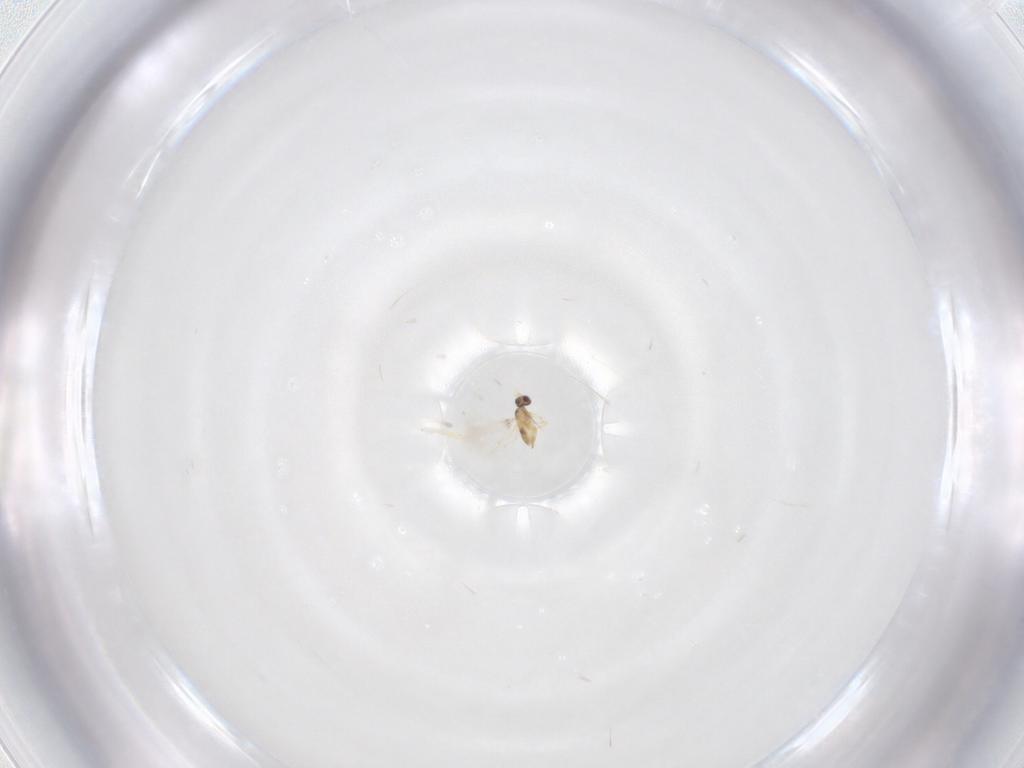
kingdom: Animalia
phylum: Arthropoda
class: Insecta
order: Hymenoptera
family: Mymaridae
